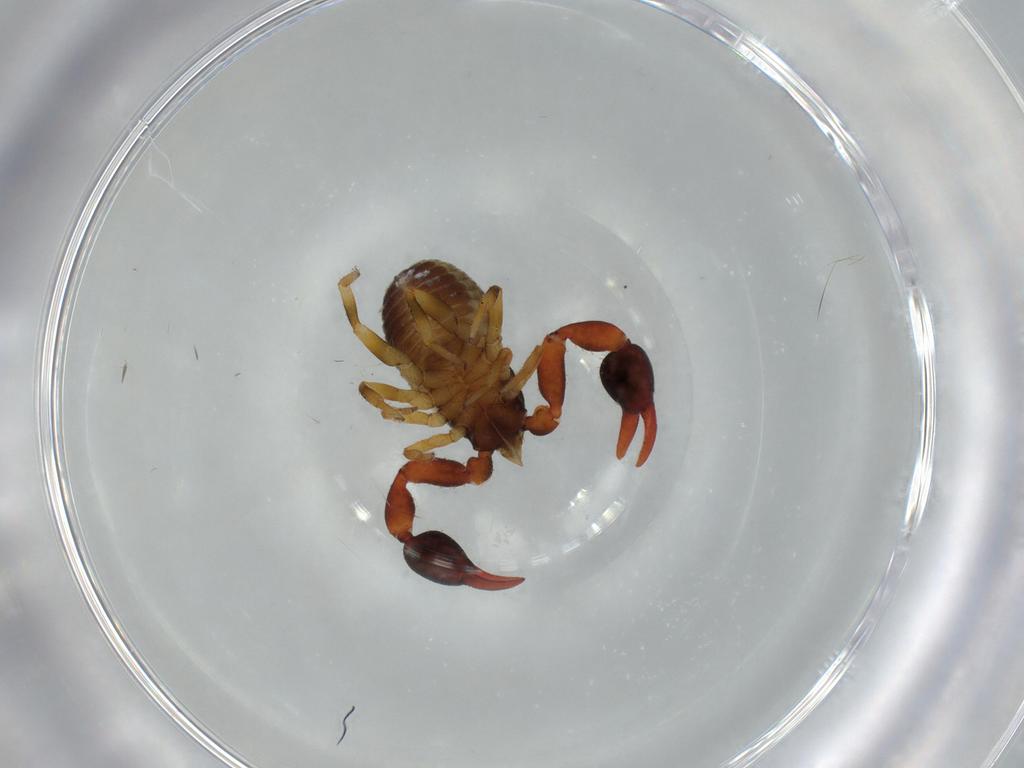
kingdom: Animalia
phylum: Arthropoda
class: Arachnida
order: Pseudoscorpiones
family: Chernetidae
